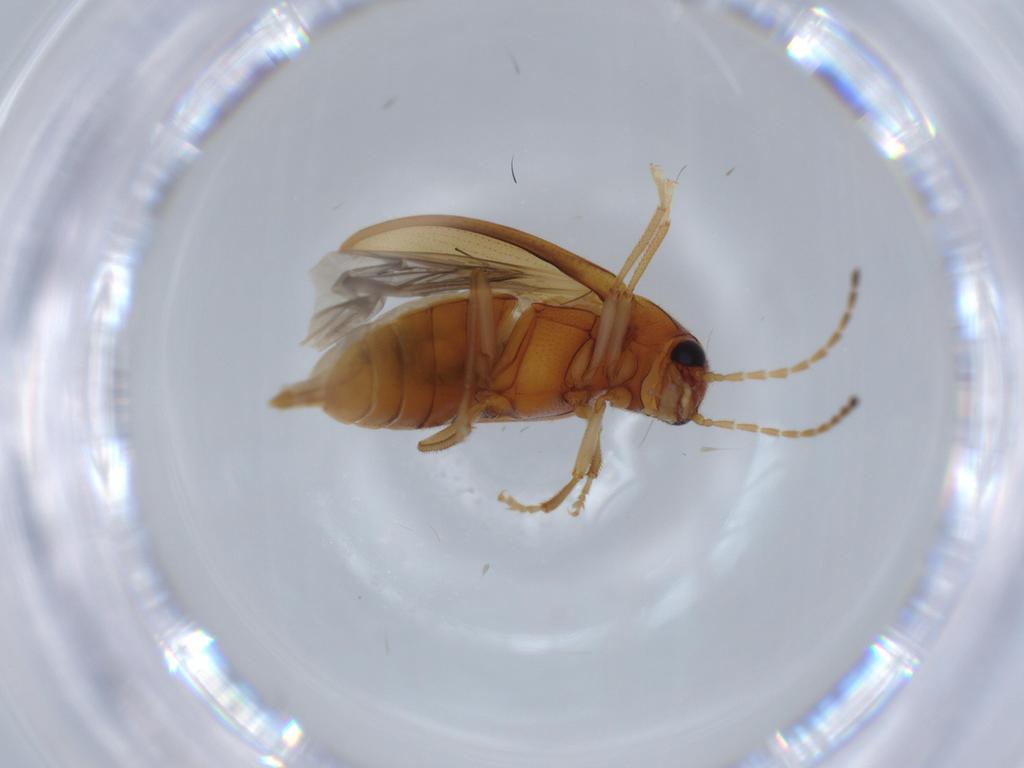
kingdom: Animalia
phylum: Arthropoda
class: Insecta
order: Coleoptera
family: Ptilodactylidae
